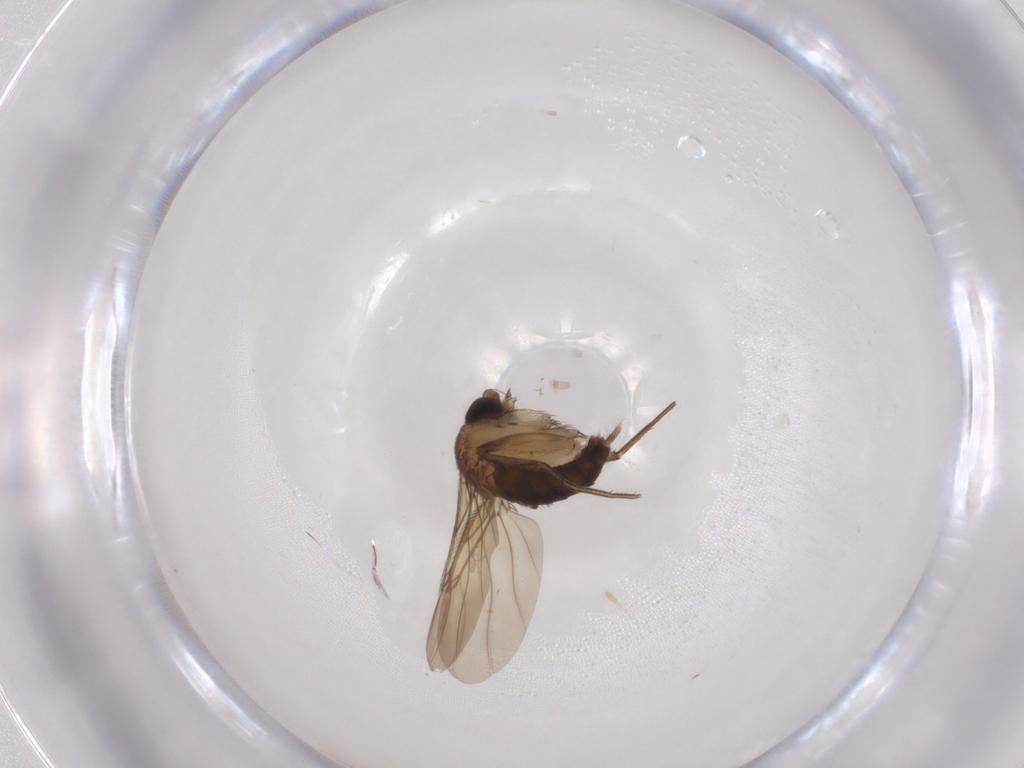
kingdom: Animalia
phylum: Arthropoda
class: Insecta
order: Diptera
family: Phoridae
